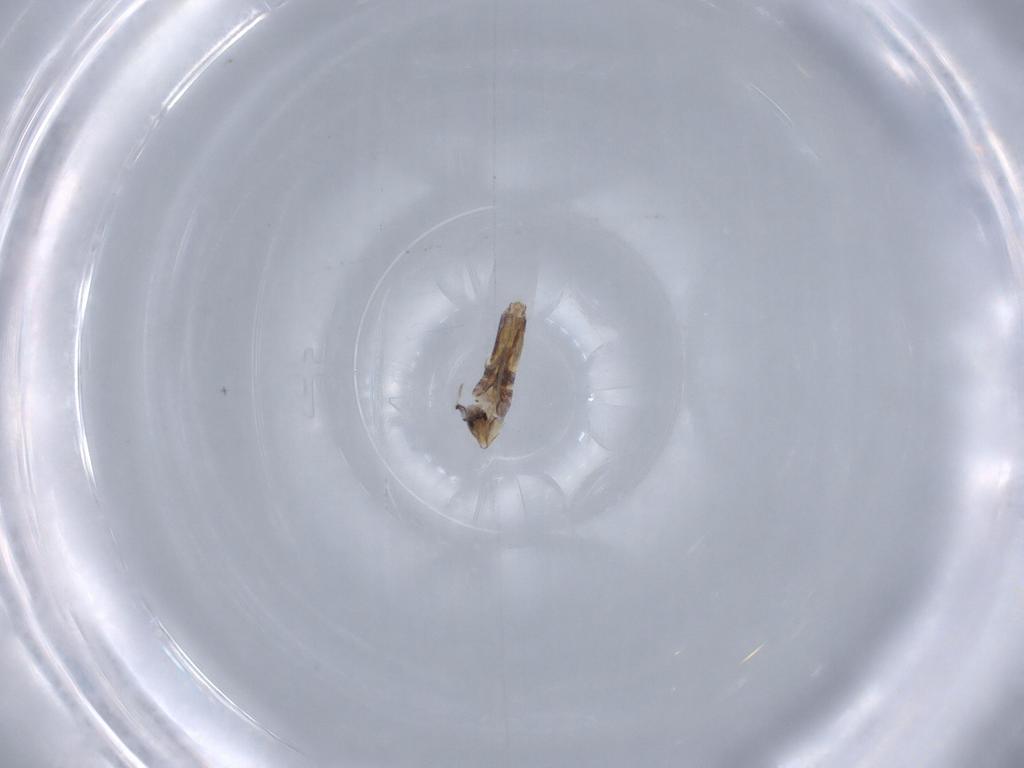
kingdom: Animalia
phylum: Arthropoda
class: Collembola
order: Poduromorpha
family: Hypogastruridae
